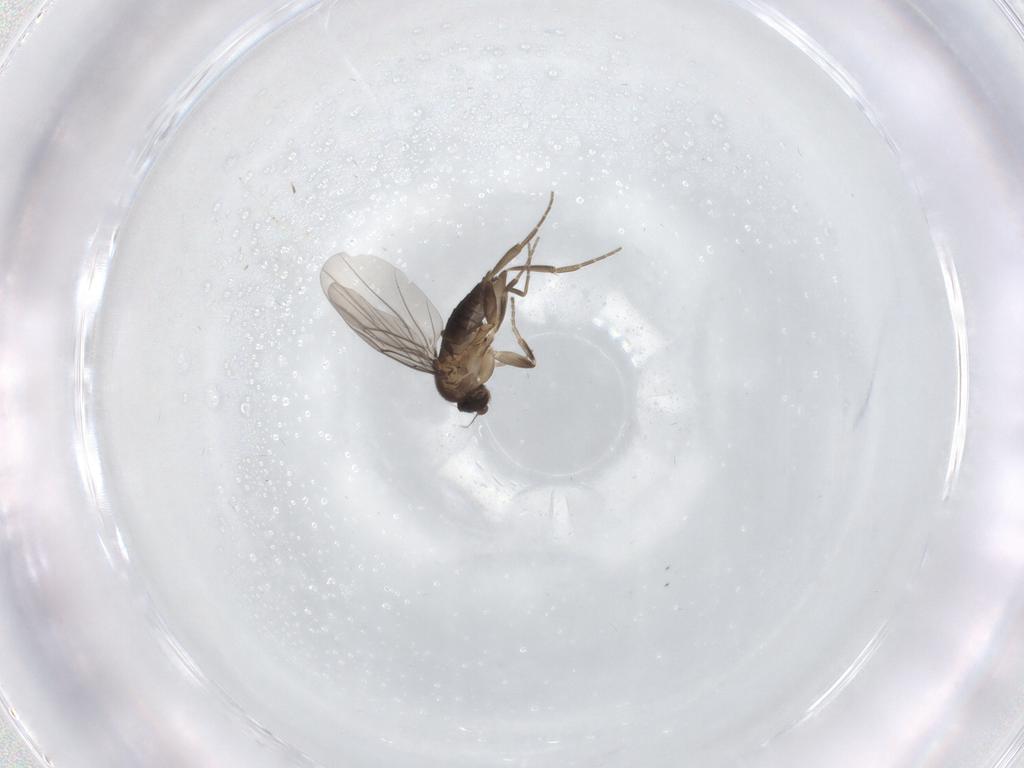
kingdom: Animalia
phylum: Arthropoda
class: Insecta
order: Diptera
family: Cecidomyiidae
